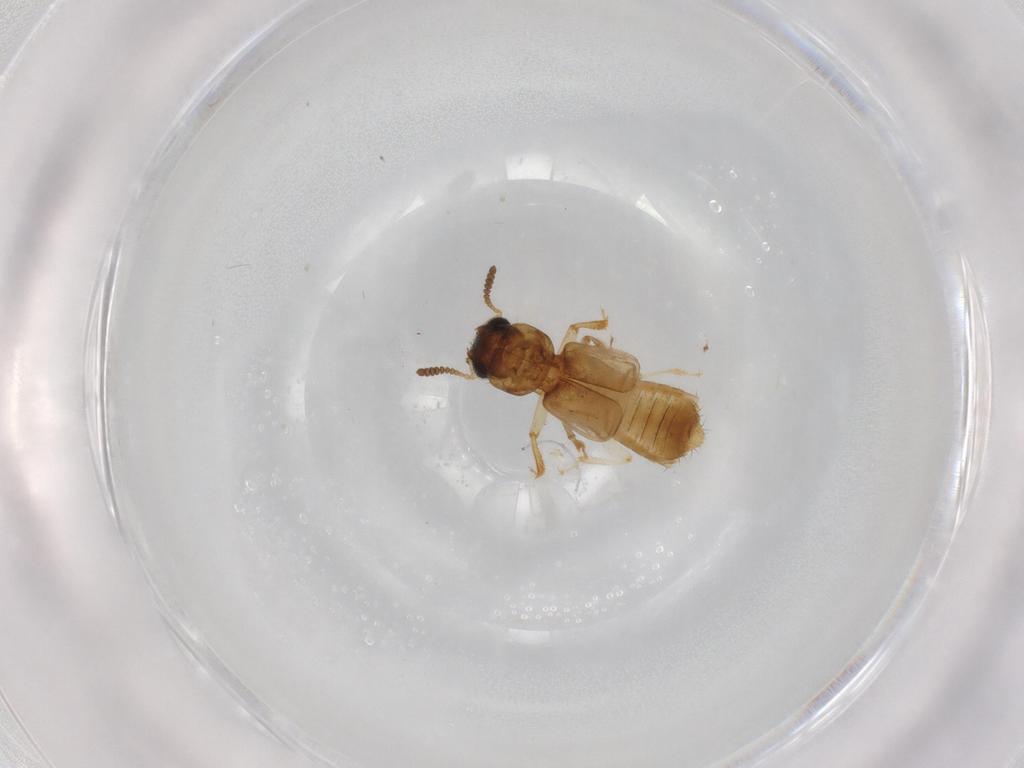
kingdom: Animalia
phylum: Arthropoda
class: Insecta
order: Coleoptera
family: Staphylinidae
